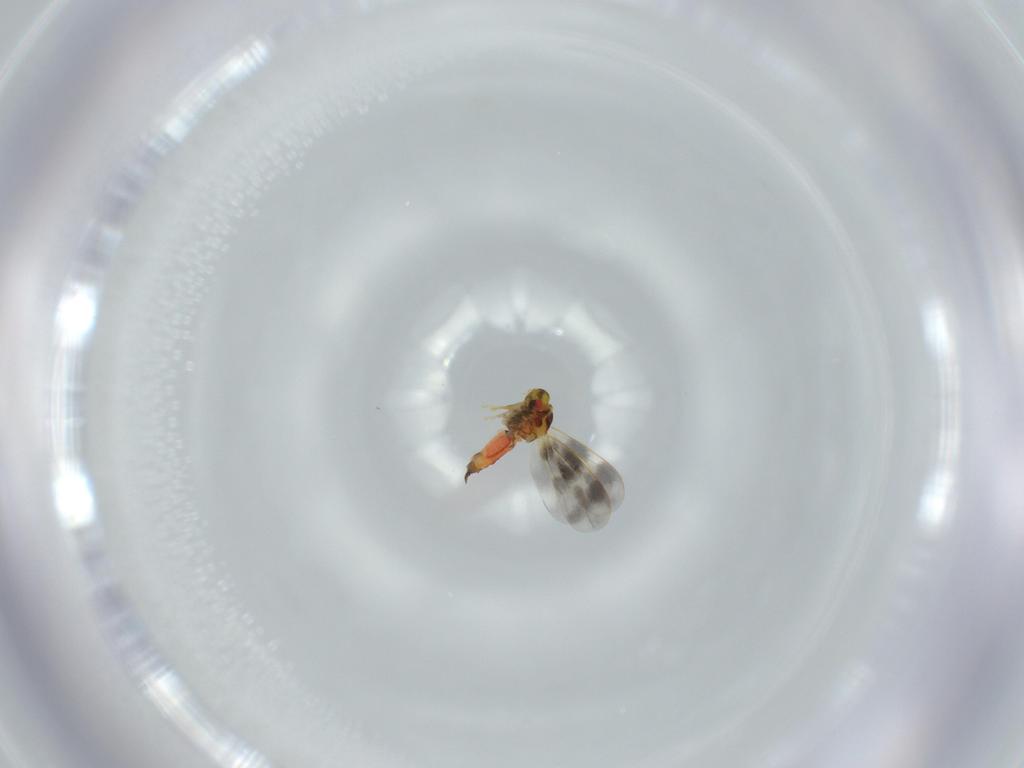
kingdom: Animalia
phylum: Arthropoda
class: Insecta
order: Hemiptera
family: Aleyrodidae
